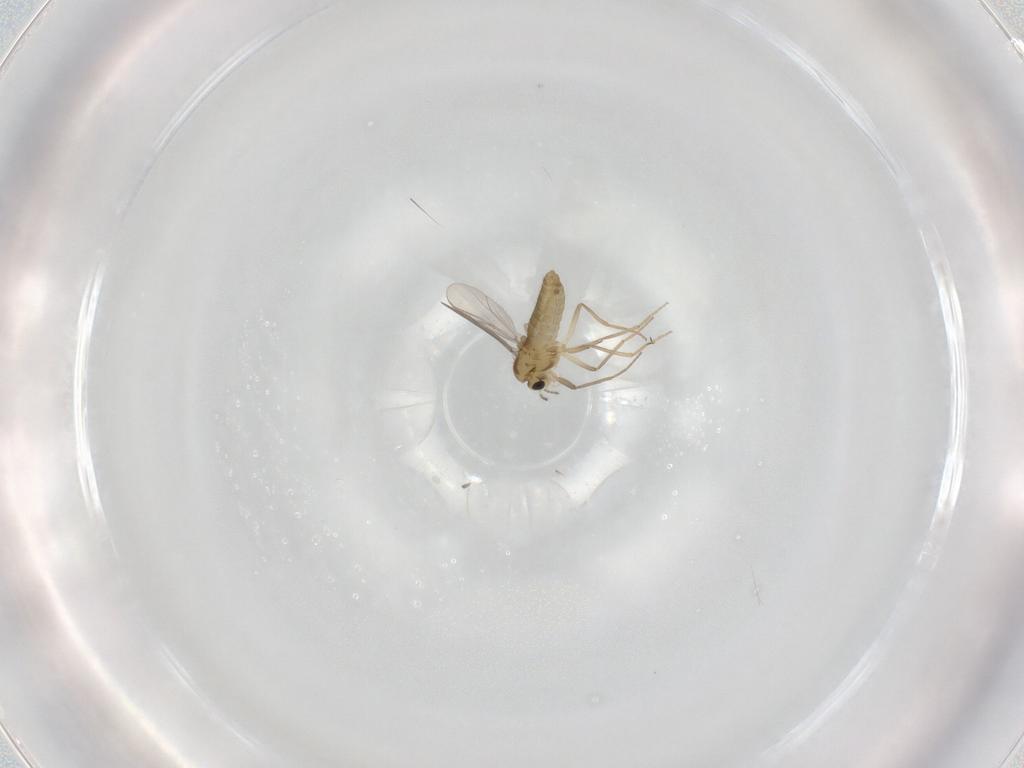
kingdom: Animalia
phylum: Arthropoda
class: Insecta
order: Diptera
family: Chironomidae
